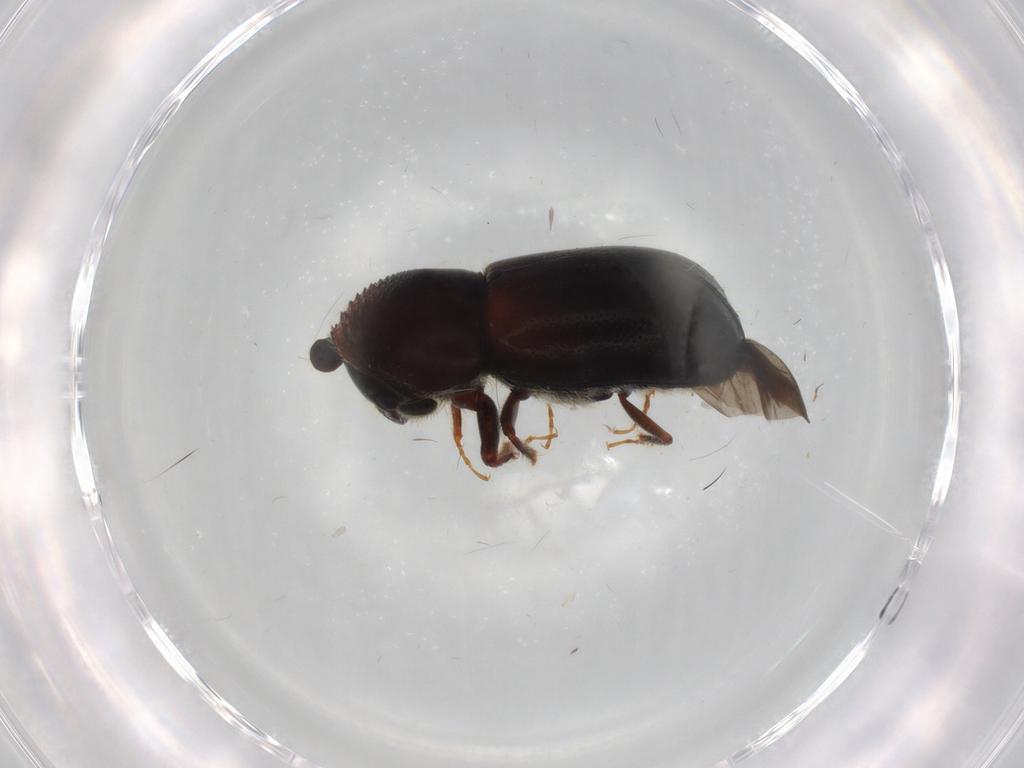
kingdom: Animalia
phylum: Arthropoda
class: Insecta
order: Coleoptera
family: Curculionidae
